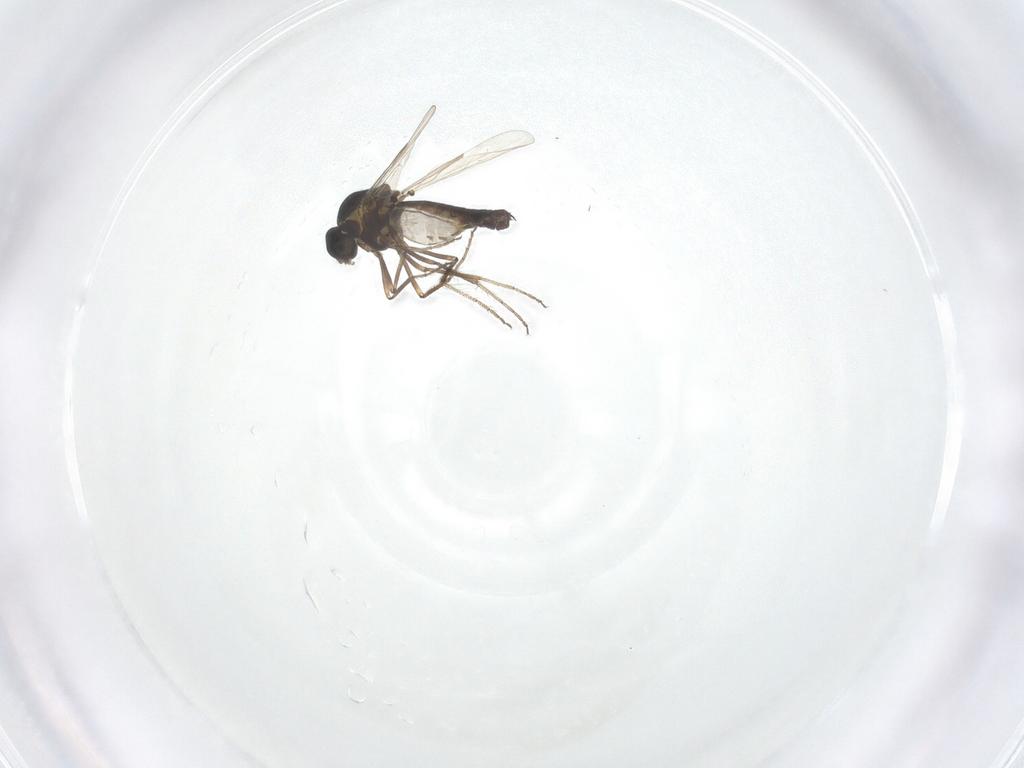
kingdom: Animalia
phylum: Arthropoda
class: Insecta
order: Diptera
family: Ceratopogonidae
